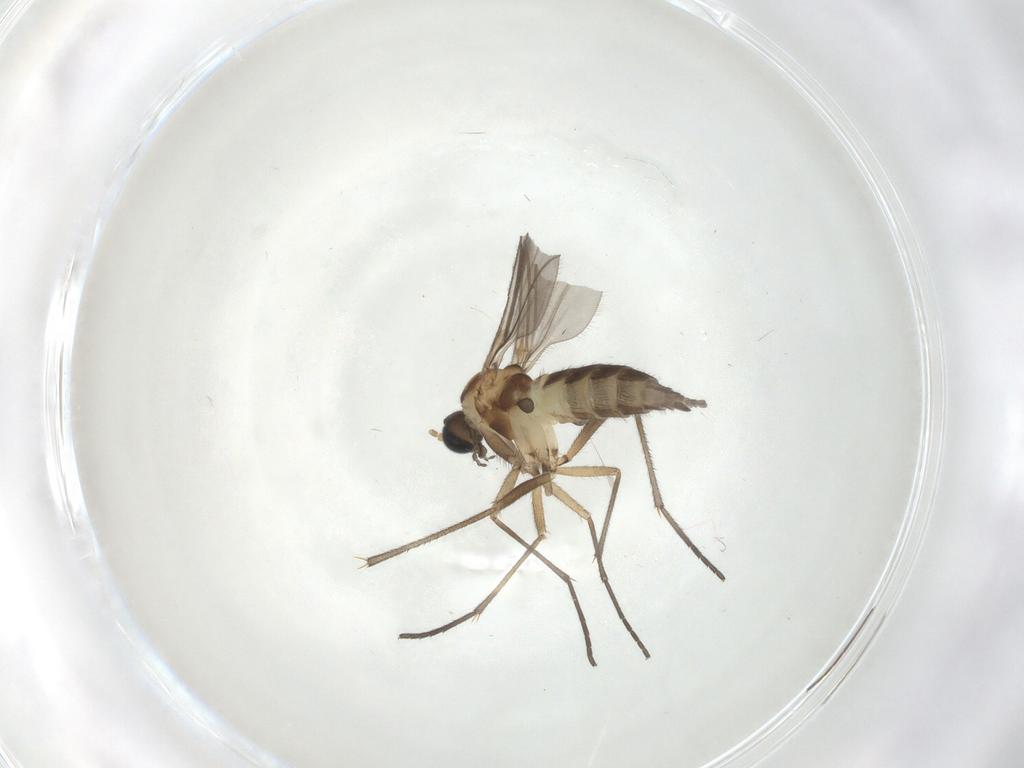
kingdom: Animalia
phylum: Arthropoda
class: Insecta
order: Diptera
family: Sciaridae
